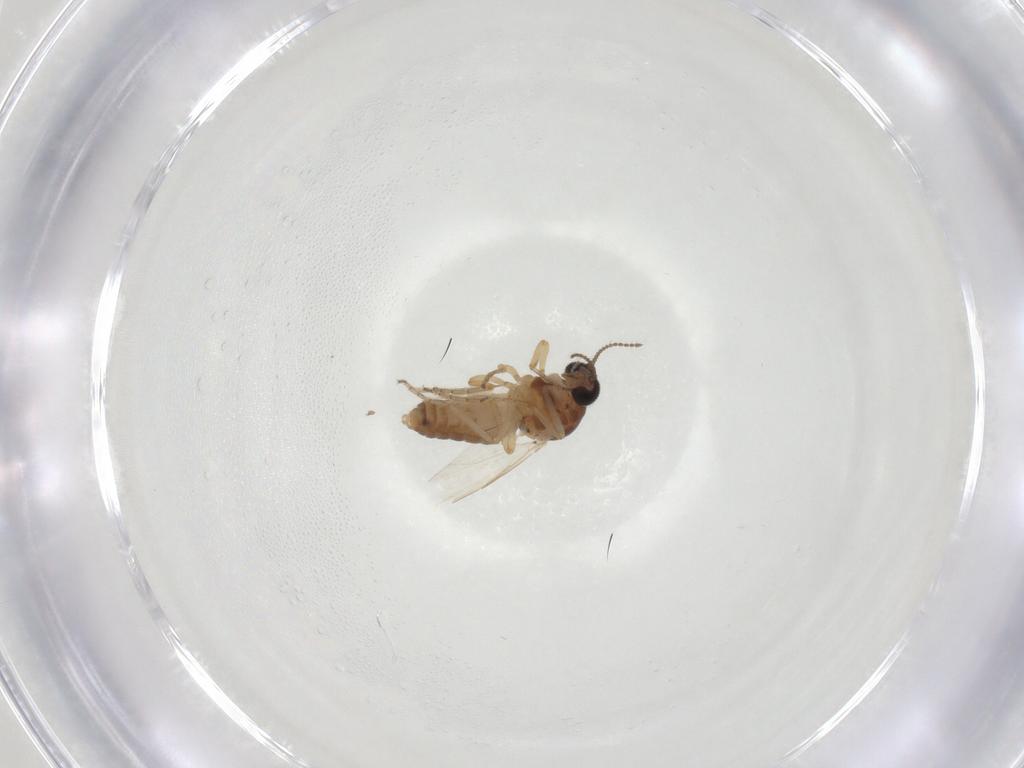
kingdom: Animalia
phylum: Arthropoda
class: Insecta
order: Diptera
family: Ceratopogonidae
